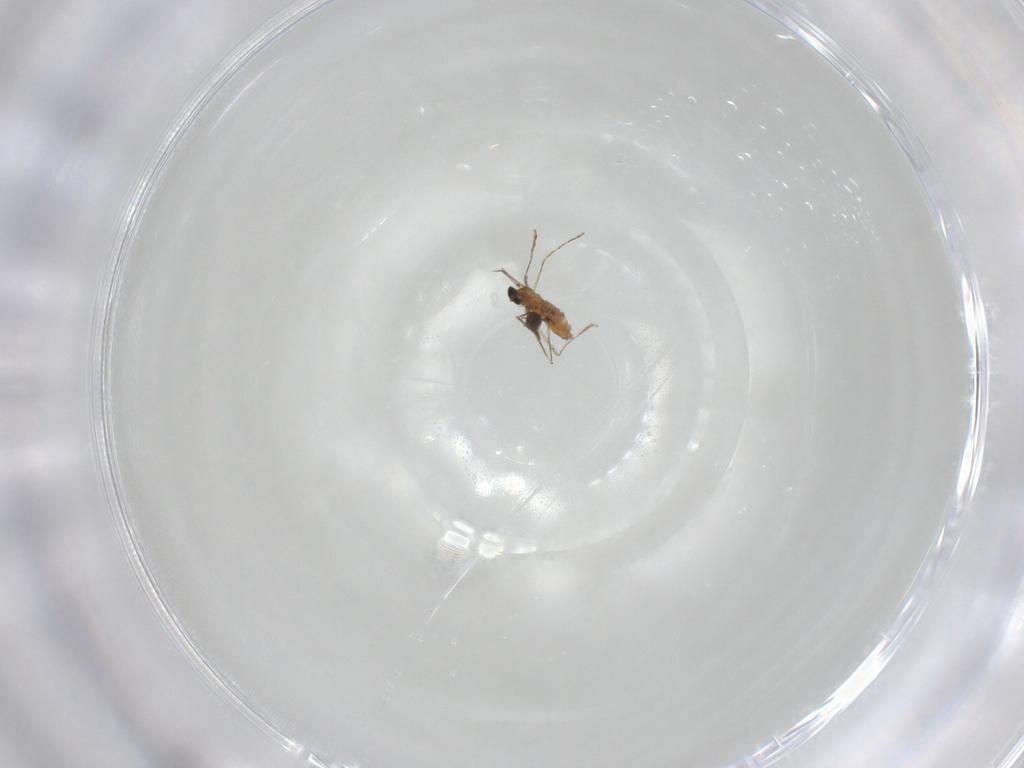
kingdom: Animalia
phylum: Arthropoda
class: Insecta
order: Diptera
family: Cecidomyiidae
